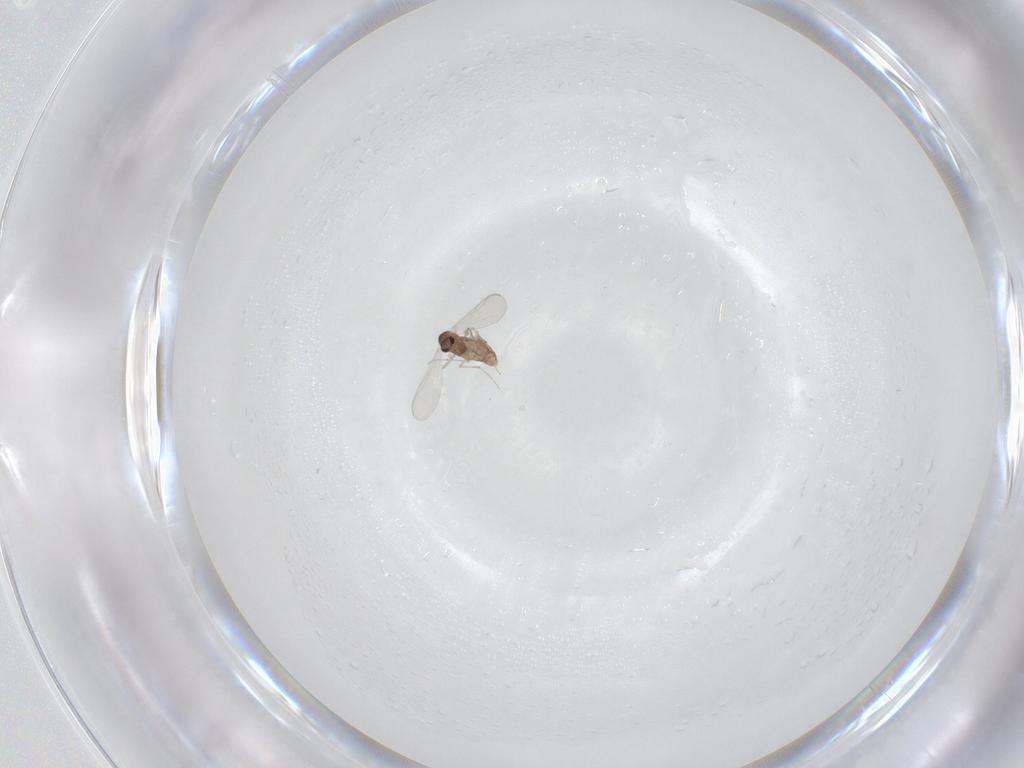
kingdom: Animalia
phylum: Arthropoda
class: Insecta
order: Diptera
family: Chironomidae
